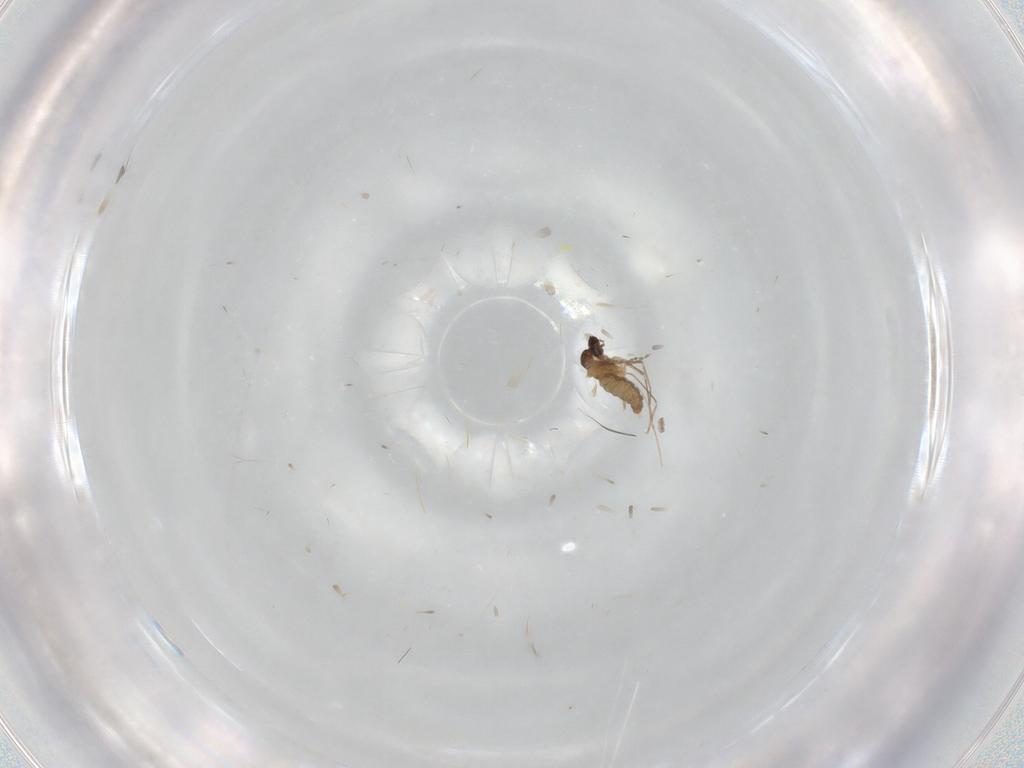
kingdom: Animalia
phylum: Arthropoda
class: Insecta
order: Diptera
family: Cecidomyiidae
